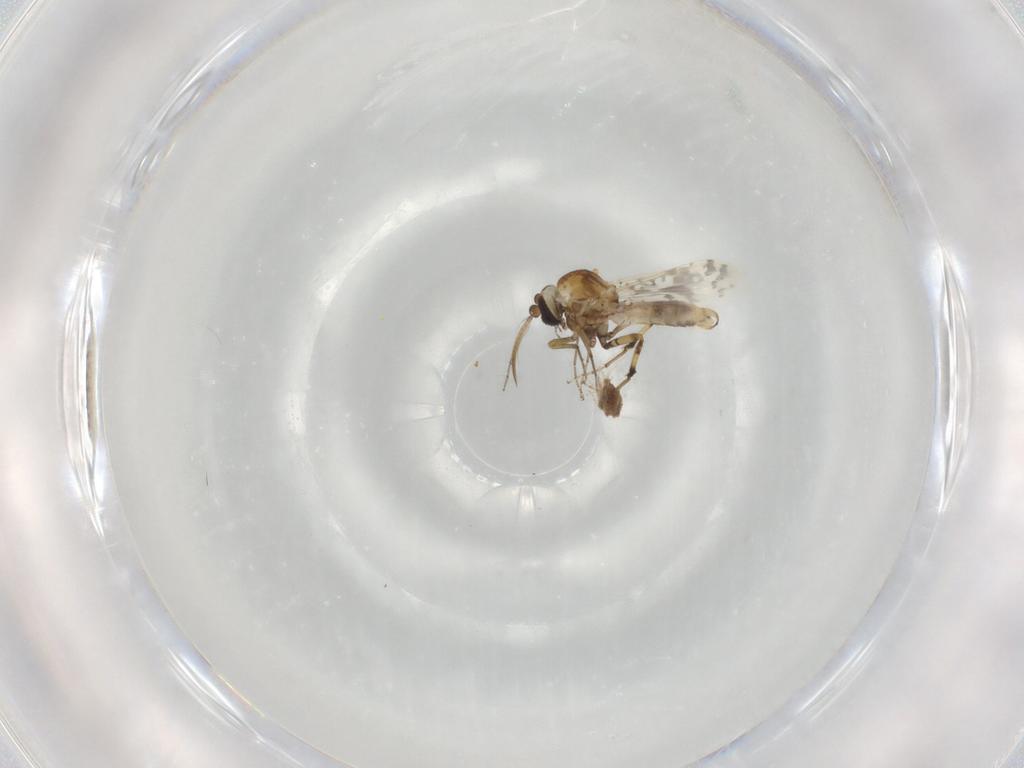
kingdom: Animalia
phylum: Arthropoda
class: Insecta
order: Diptera
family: Ceratopogonidae
